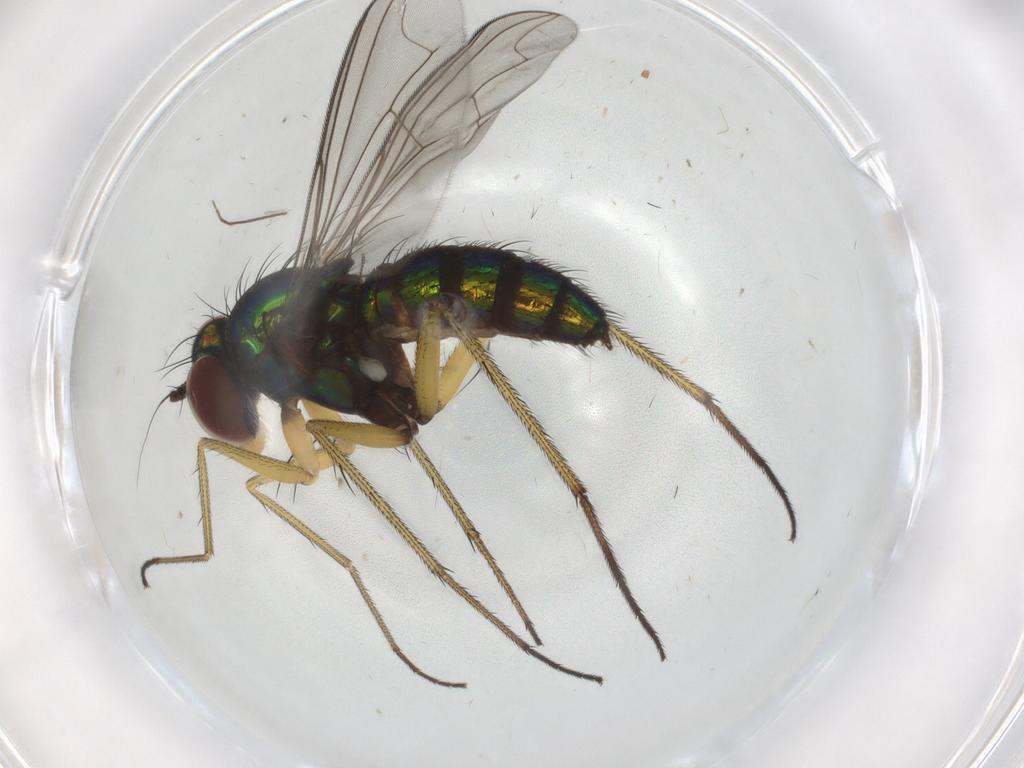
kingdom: Animalia
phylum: Arthropoda
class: Insecta
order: Diptera
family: Dolichopodidae
